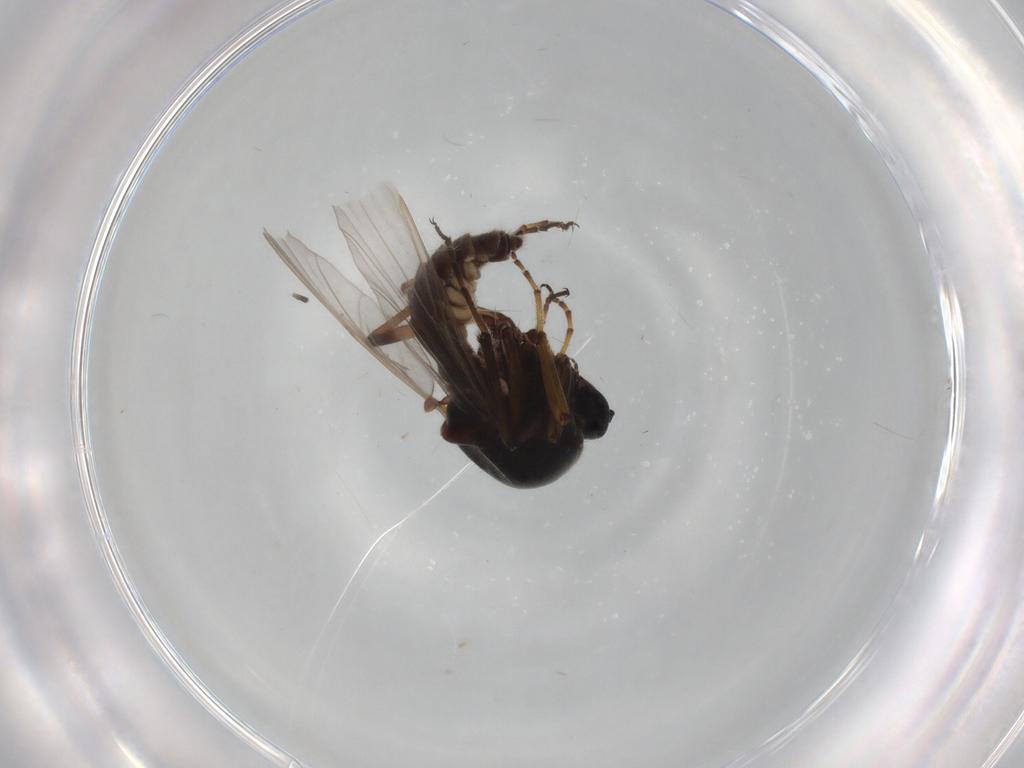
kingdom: Animalia
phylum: Arthropoda
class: Insecta
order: Diptera
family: Ceratopogonidae
